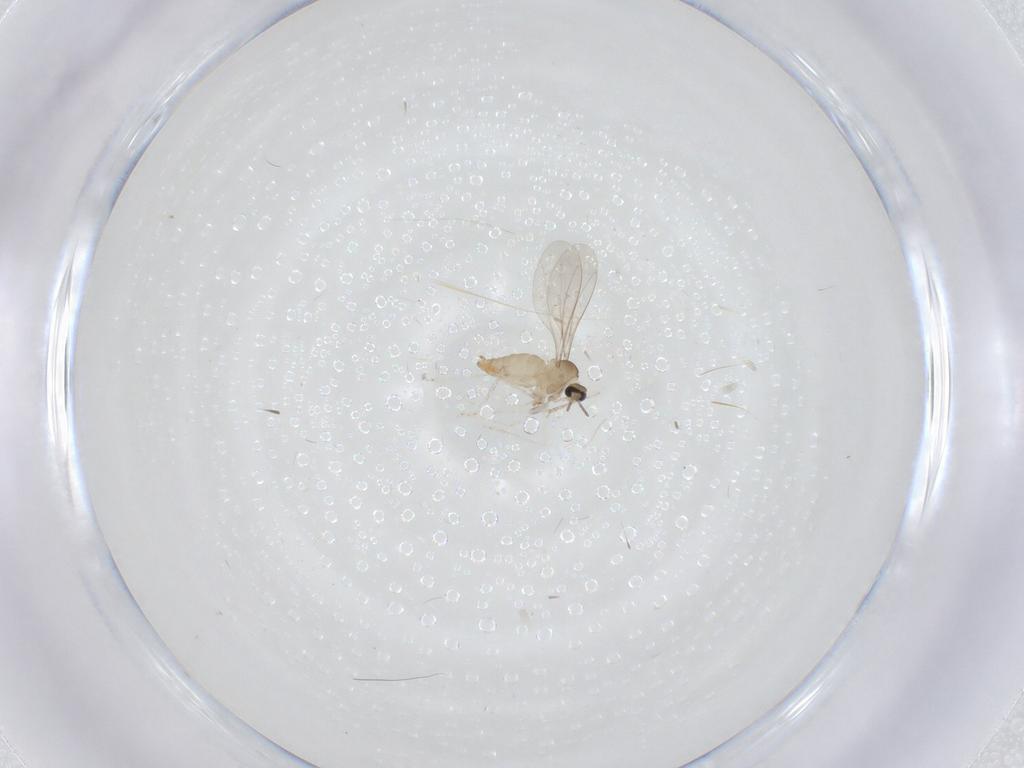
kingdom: Animalia
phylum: Arthropoda
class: Insecta
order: Diptera
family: Cecidomyiidae
